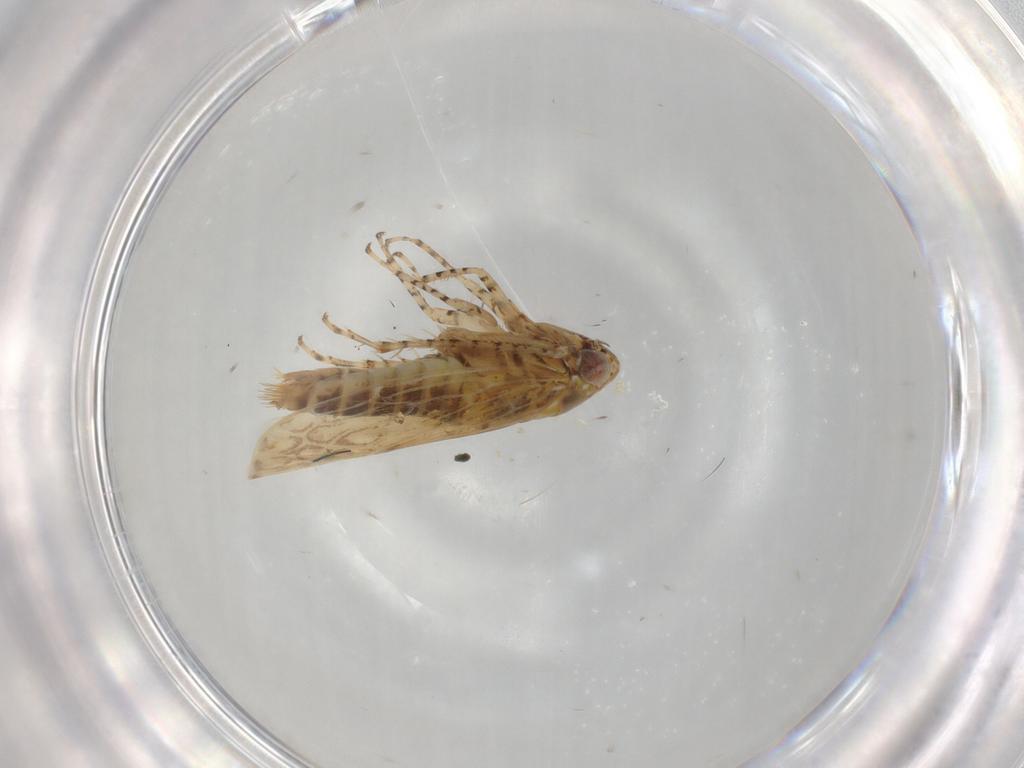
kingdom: Animalia
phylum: Arthropoda
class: Insecta
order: Hemiptera
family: Cicadellidae
